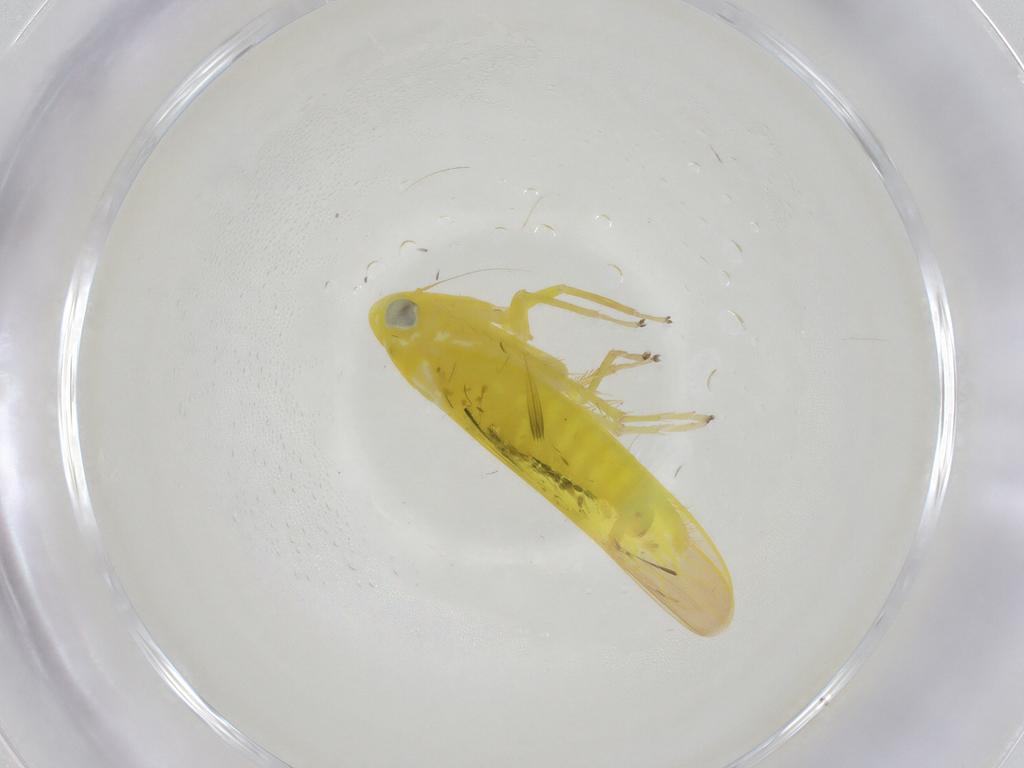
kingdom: Animalia
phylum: Arthropoda
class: Insecta
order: Hemiptera
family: Cicadellidae
